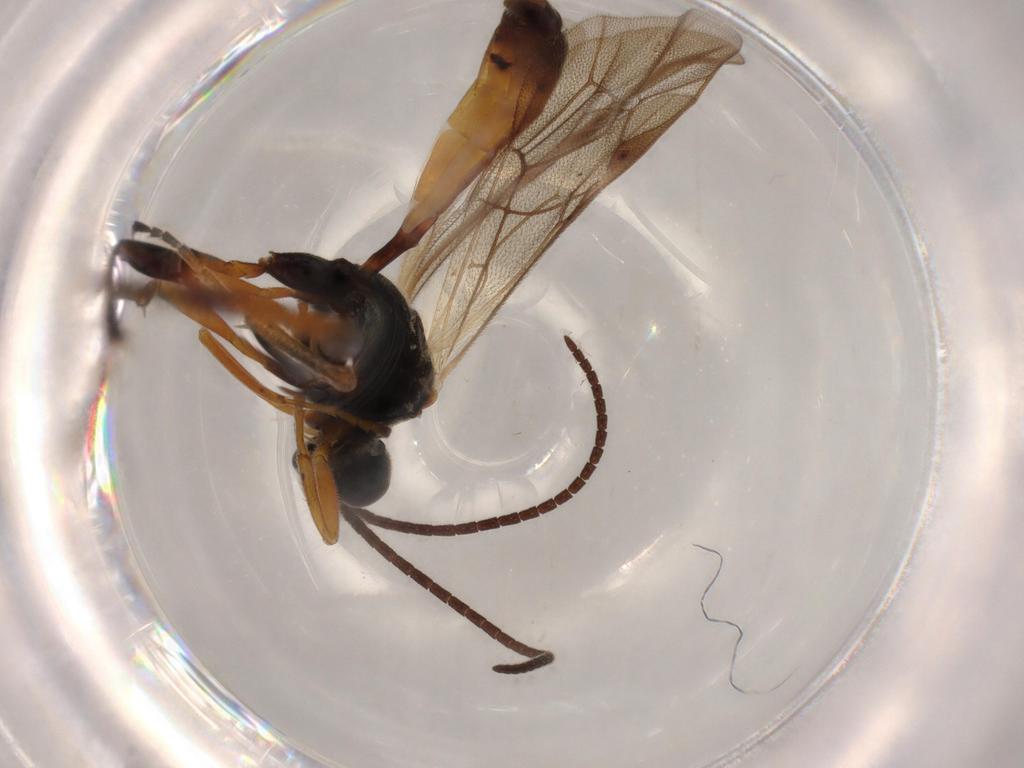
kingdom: Animalia
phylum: Arthropoda
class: Insecta
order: Hymenoptera
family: Ichneumonidae
